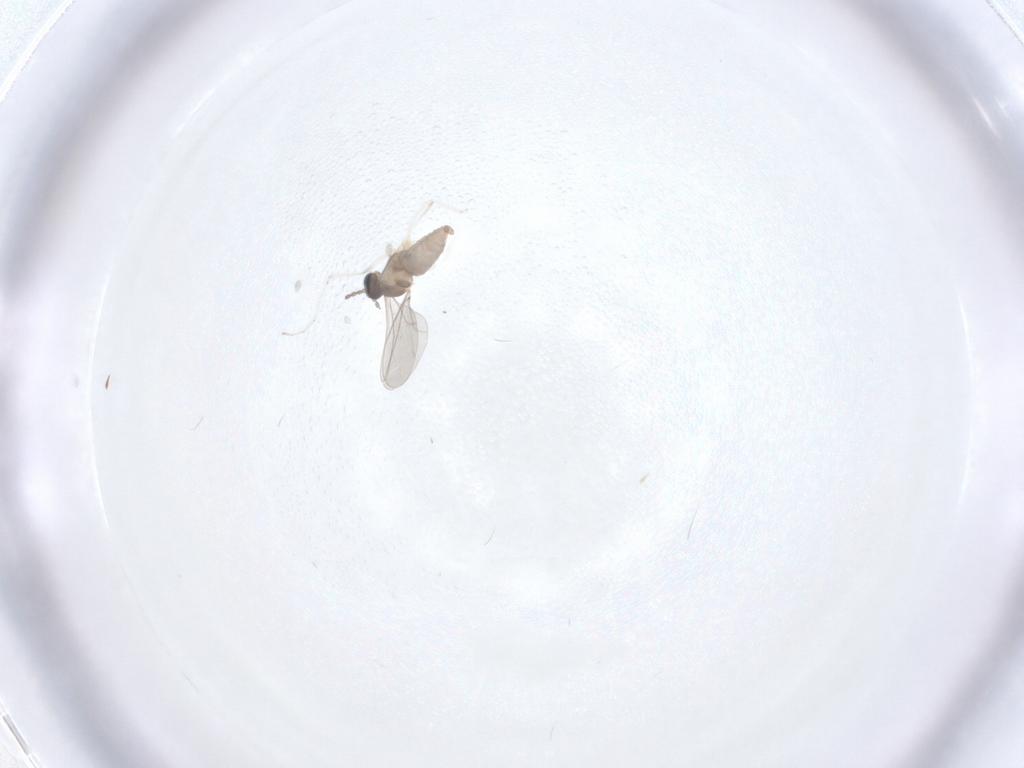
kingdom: Animalia
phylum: Arthropoda
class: Insecta
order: Diptera
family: Cecidomyiidae
